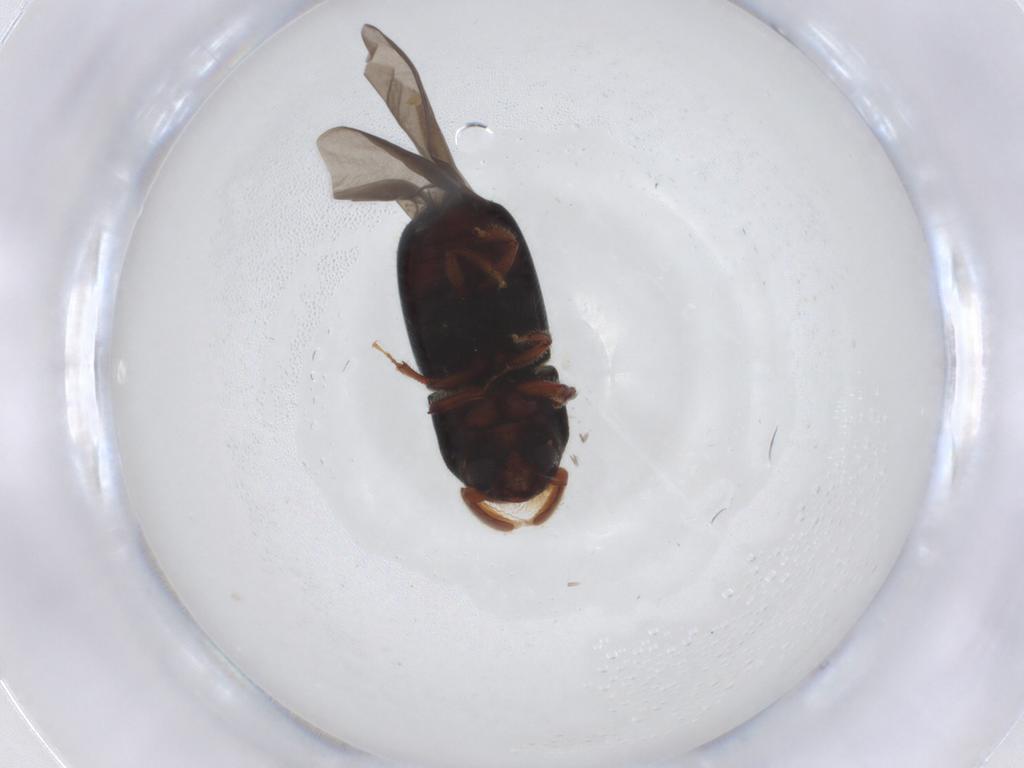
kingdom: Animalia
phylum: Arthropoda
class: Insecta
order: Coleoptera
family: Curculionidae
